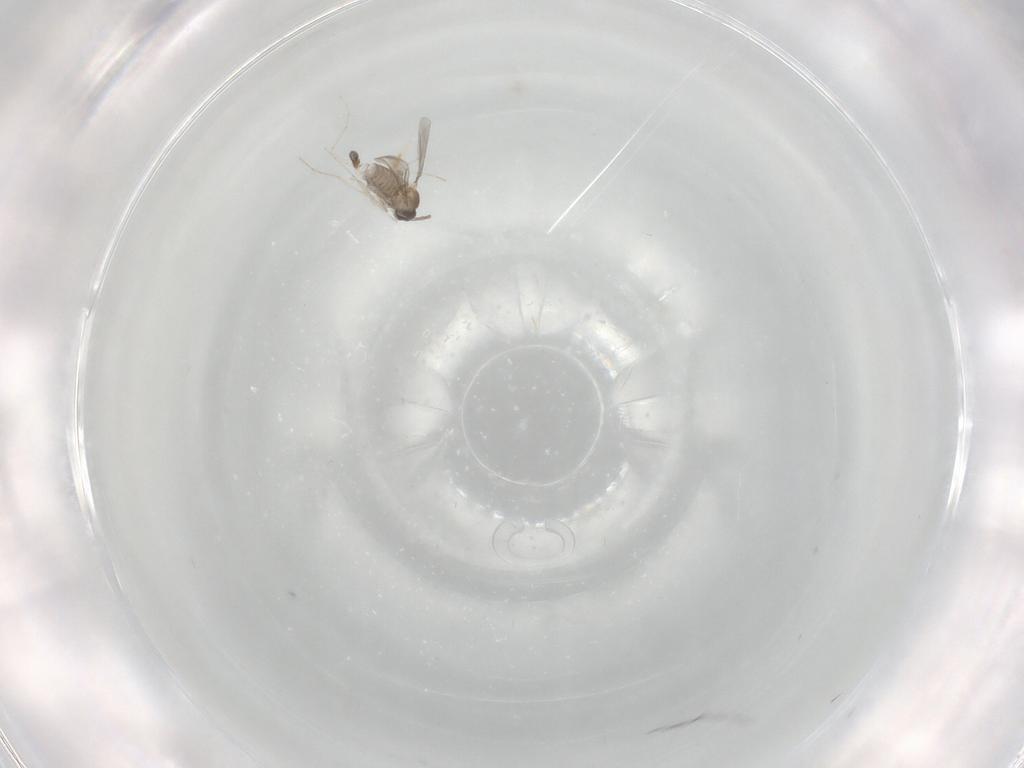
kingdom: Animalia
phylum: Arthropoda
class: Insecta
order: Diptera
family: Cecidomyiidae
